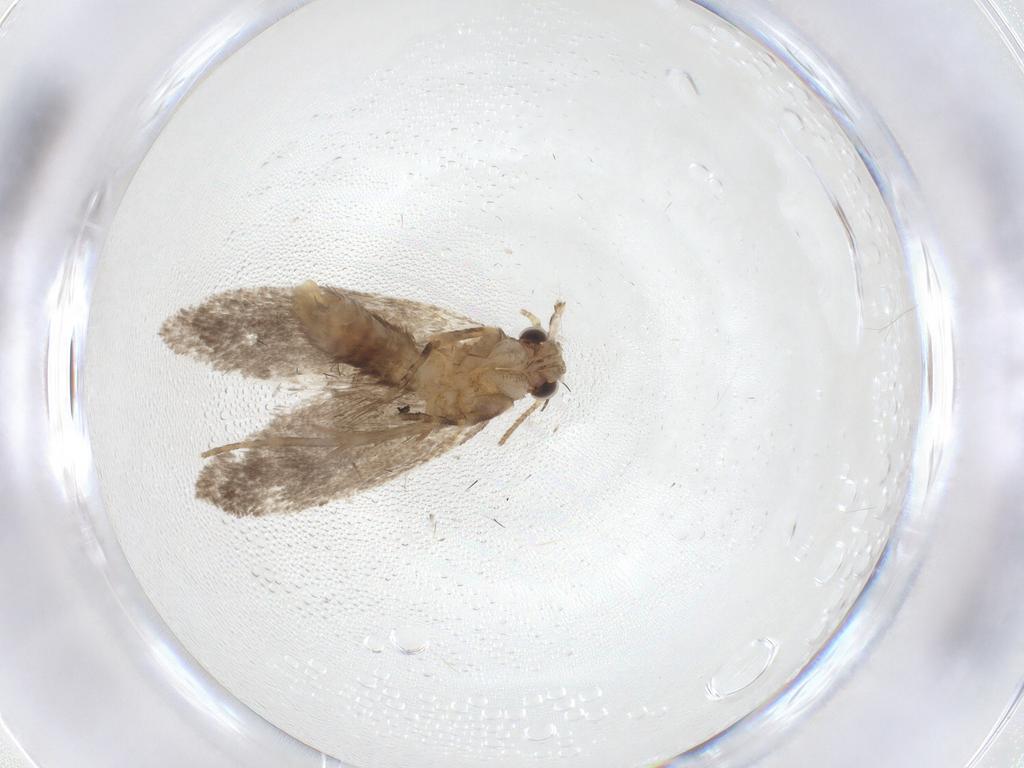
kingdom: Animalia
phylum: Arthropoda
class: Insecta
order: Lepidoptera
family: Dryadaulidae
